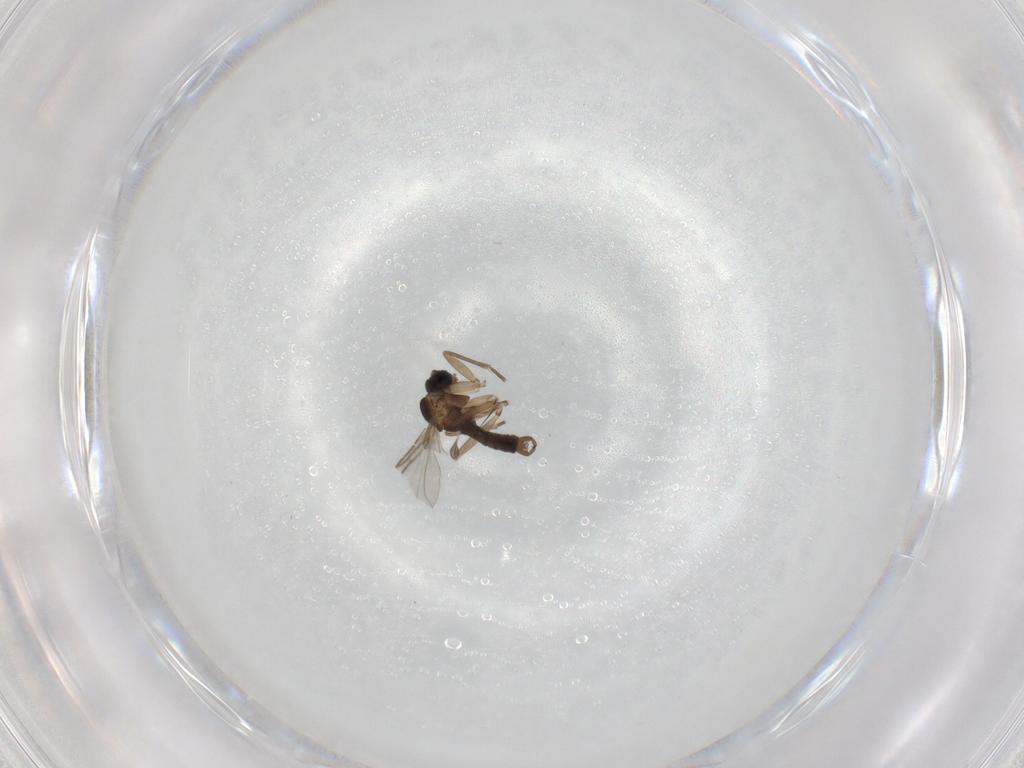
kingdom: Animalia
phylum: Arthropoda
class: Insecta
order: Diptera
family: Sciaridae
